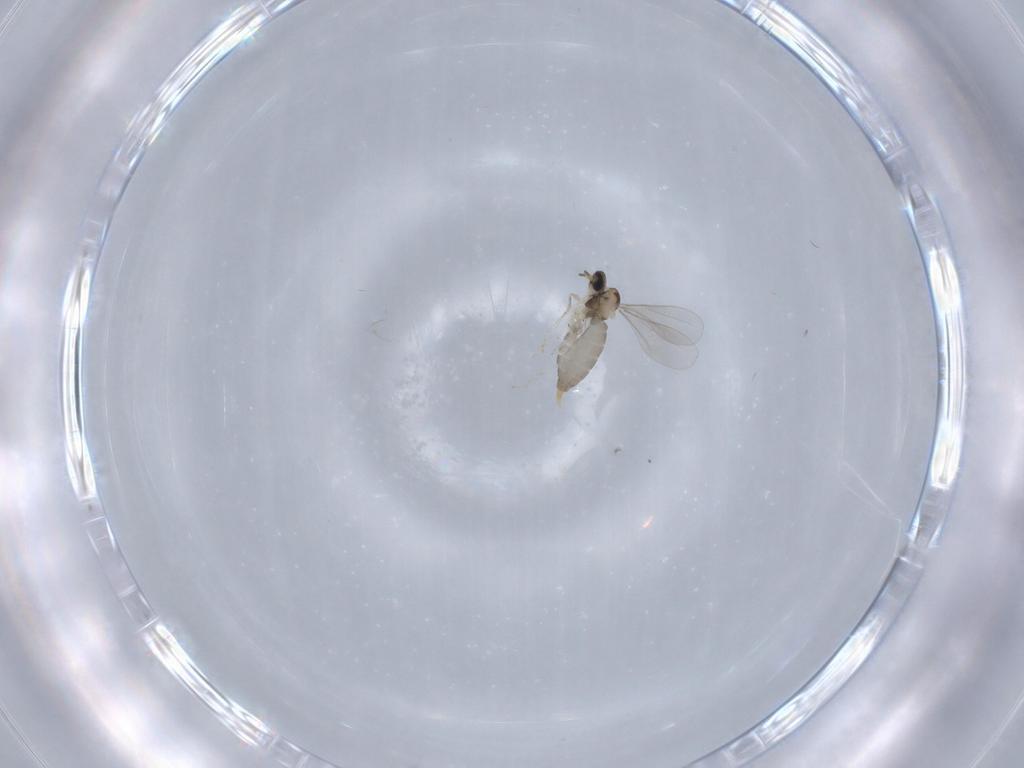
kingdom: Animalia
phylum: Arthropoda
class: Insecta
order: Diptera
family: Cecidomyiidae
